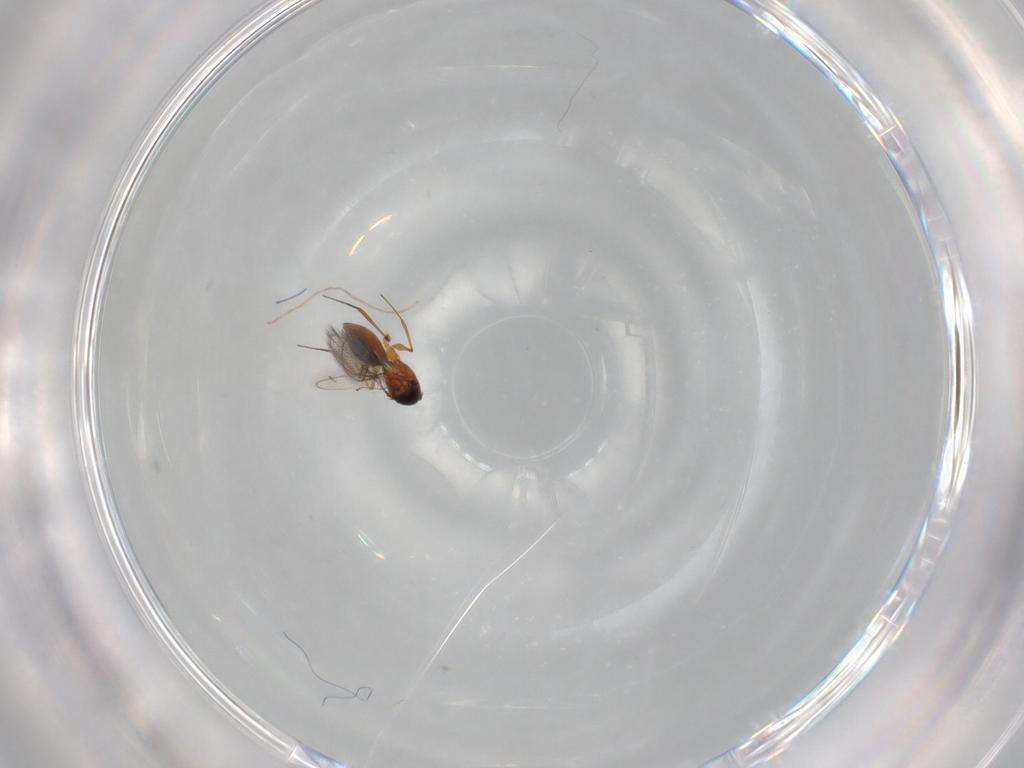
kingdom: Animalia
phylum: Arthropoda
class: Insecta
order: Hymenoptera
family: Figitidae
